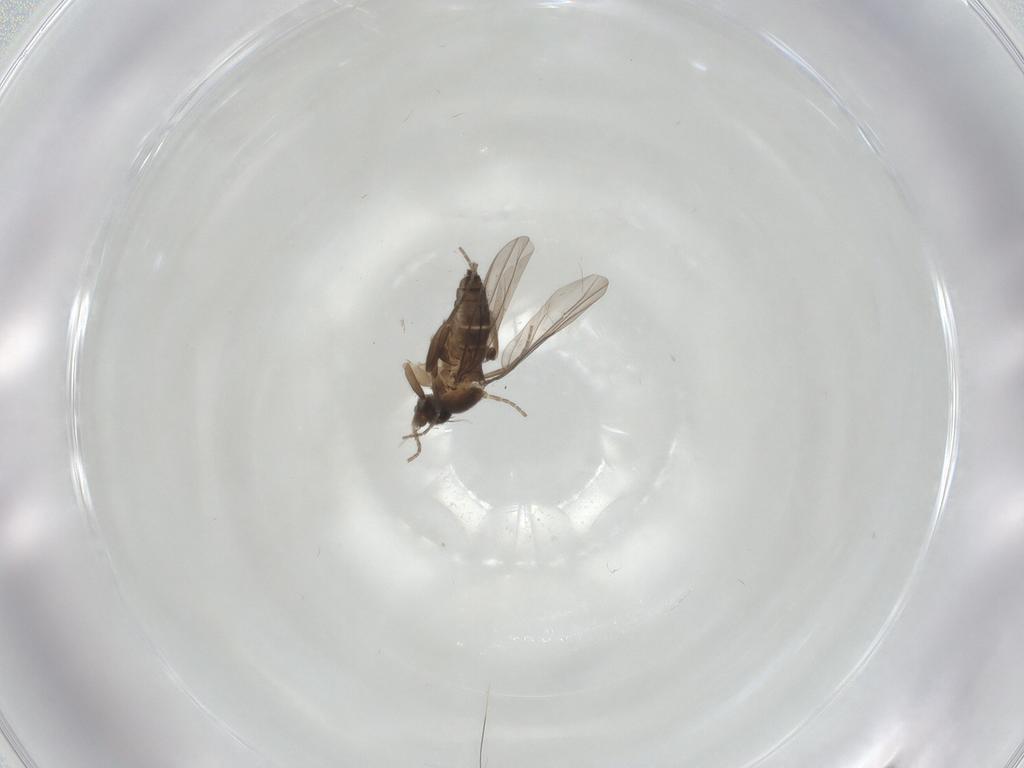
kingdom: Animalia
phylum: Arthropoda
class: Insecta
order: Diptera
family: Phoridae
